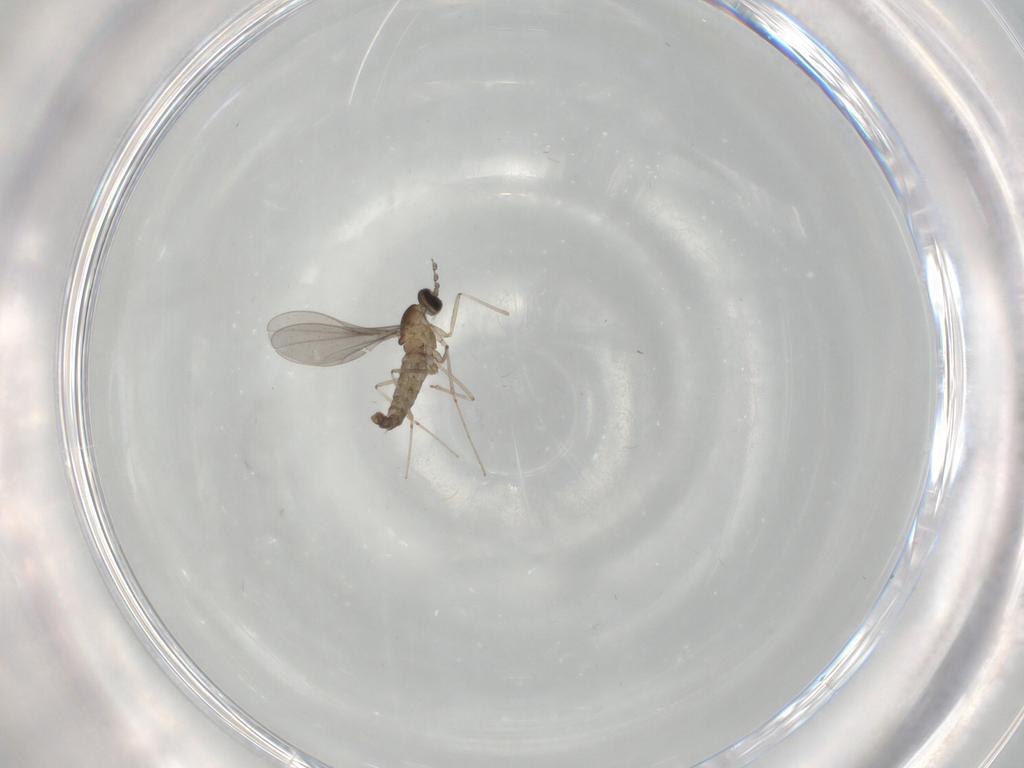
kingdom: Animalia
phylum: Arthropoda
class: Insecta
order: Diptera
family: Cecidomyiidae
